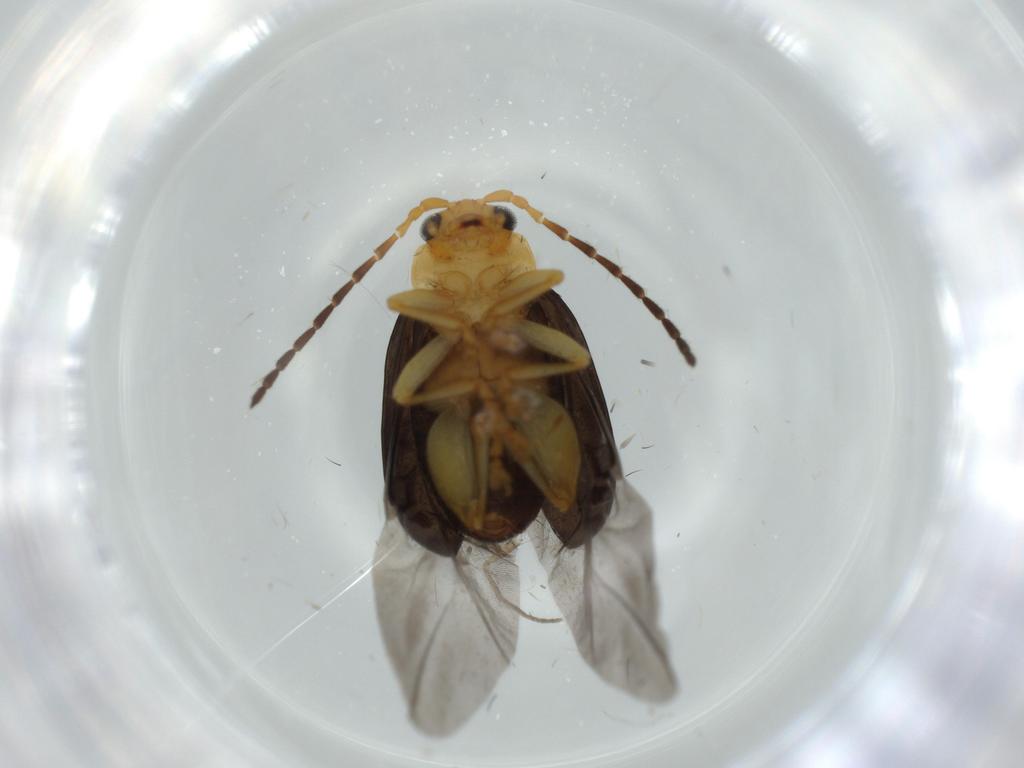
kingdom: Animalia
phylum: Arthropoda
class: Insecta
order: Coleoptera
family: Chrysomelidae
